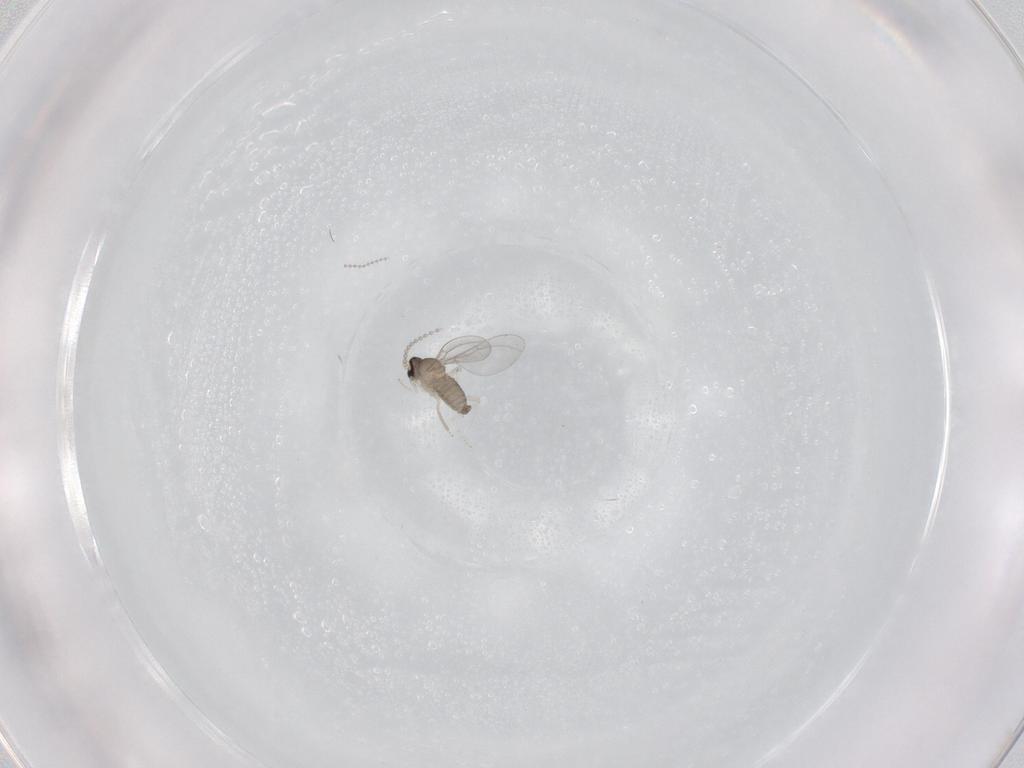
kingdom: Animalia
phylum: Arthropoda
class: Insecta
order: Diptera
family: Cecidomyiidae
